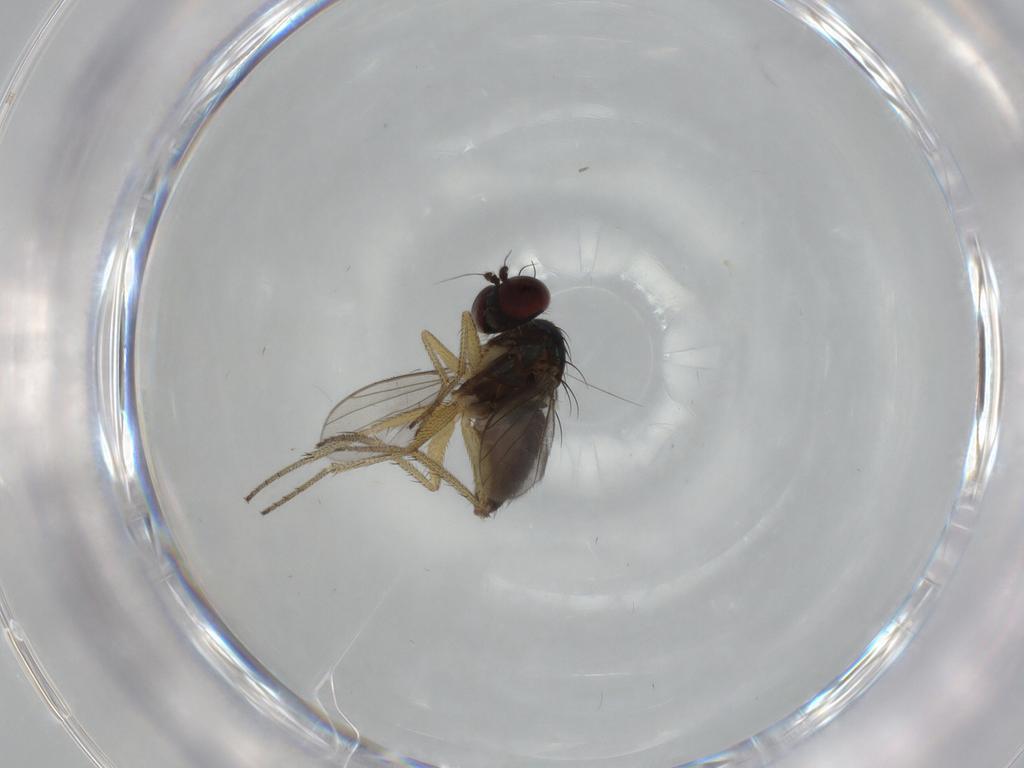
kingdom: Animalia
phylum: Arthropoda
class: Insecta
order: Diptera
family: Dolichopodidae
